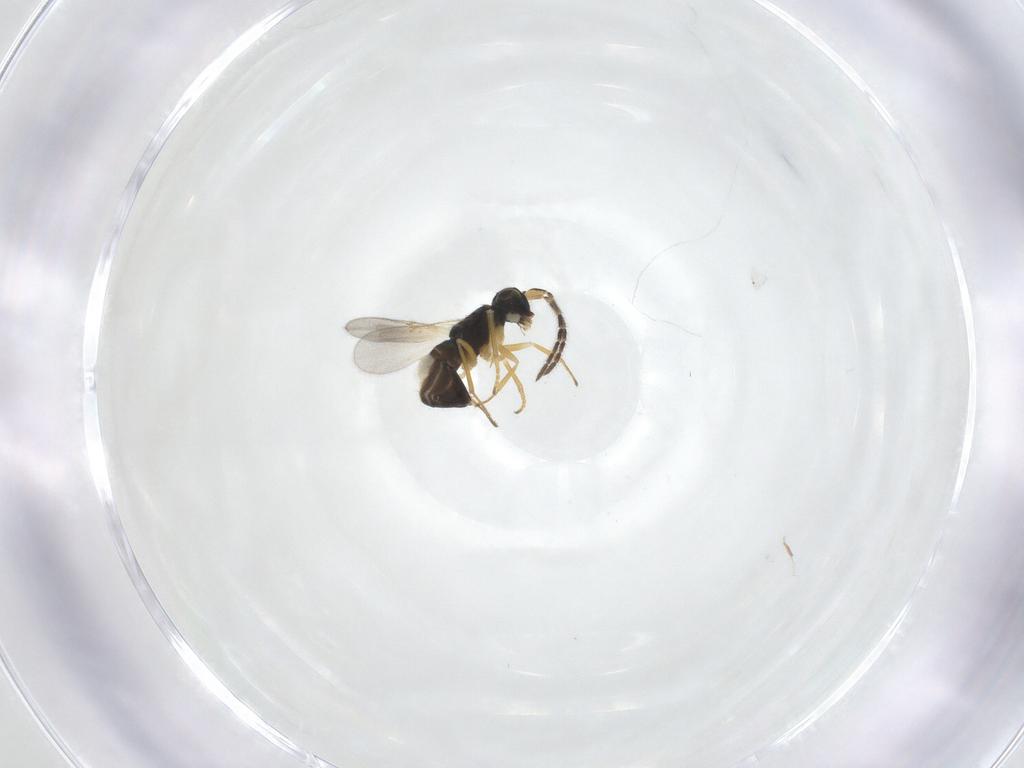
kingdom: Animalia
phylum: Arthropoda
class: Insecta
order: Hymenoptera
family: Encyrtidae
